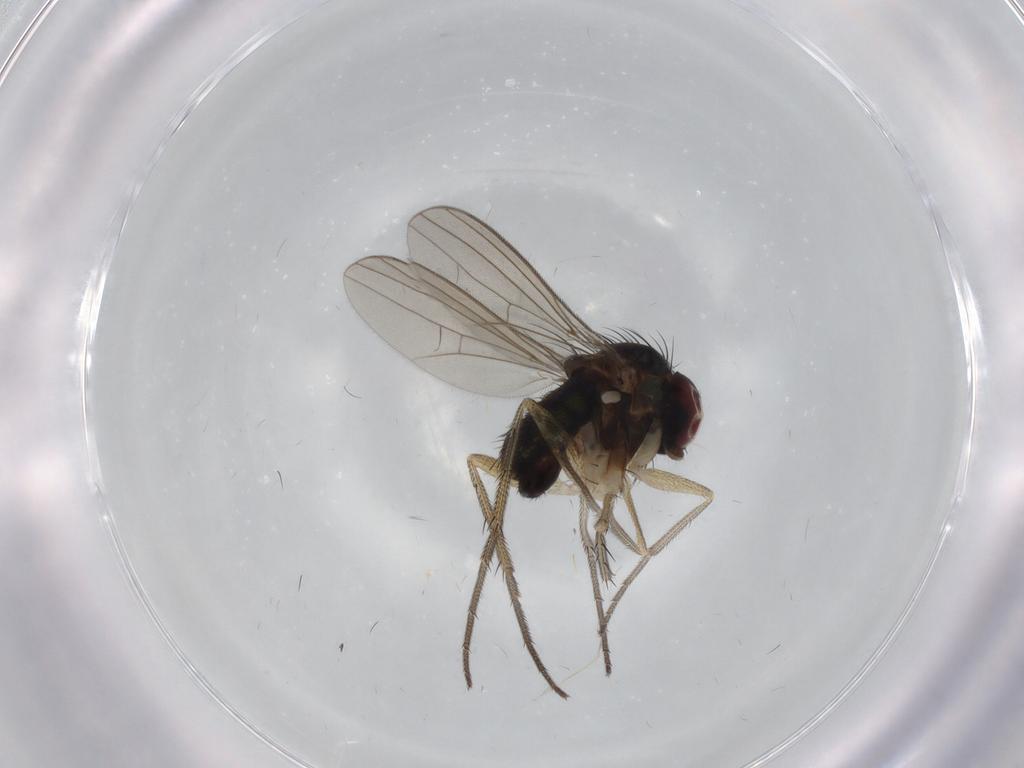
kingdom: Animalia
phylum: Arthropoda
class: Insecta
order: Diptera
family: Dolichopodidae
